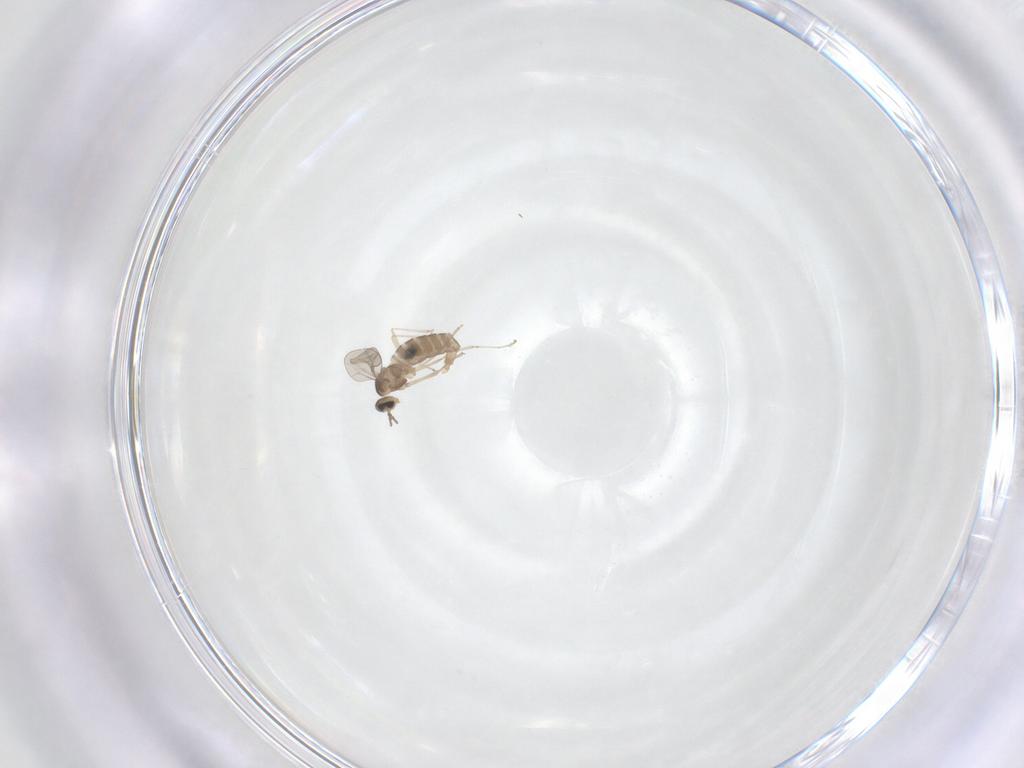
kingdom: Animalia
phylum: Arthropoda
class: Insecta
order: Diptera
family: Cecidomyiidae
